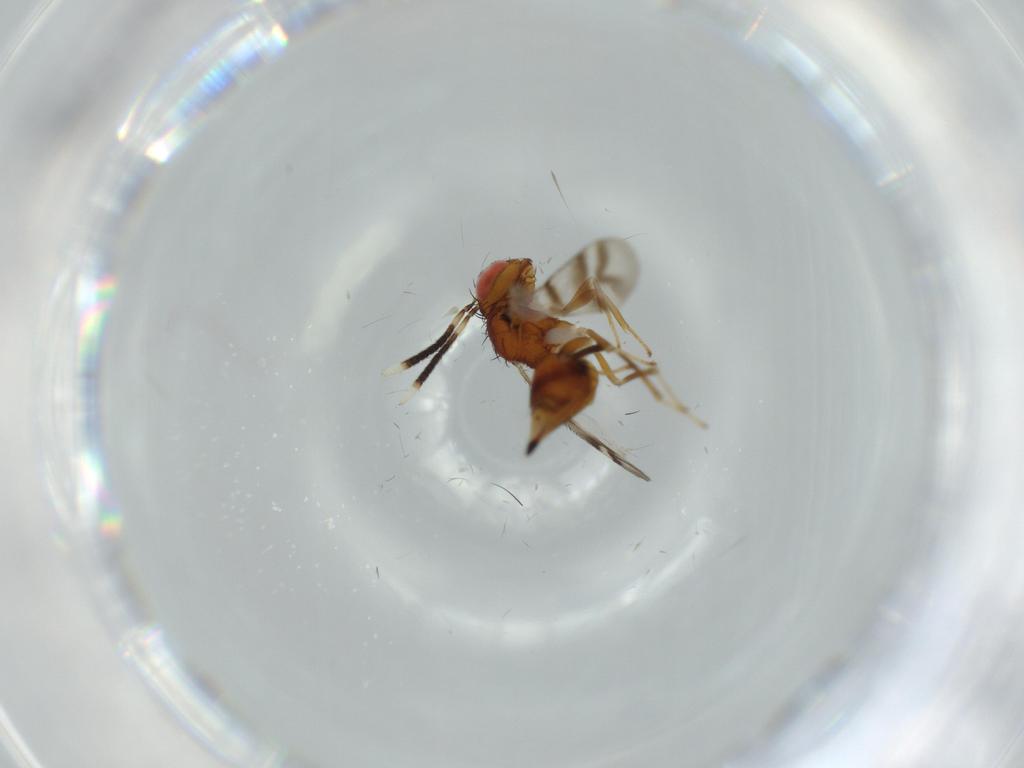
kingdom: Animalia
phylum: Arthropoda
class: Insecta
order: Hymenoptera
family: Diparidae
